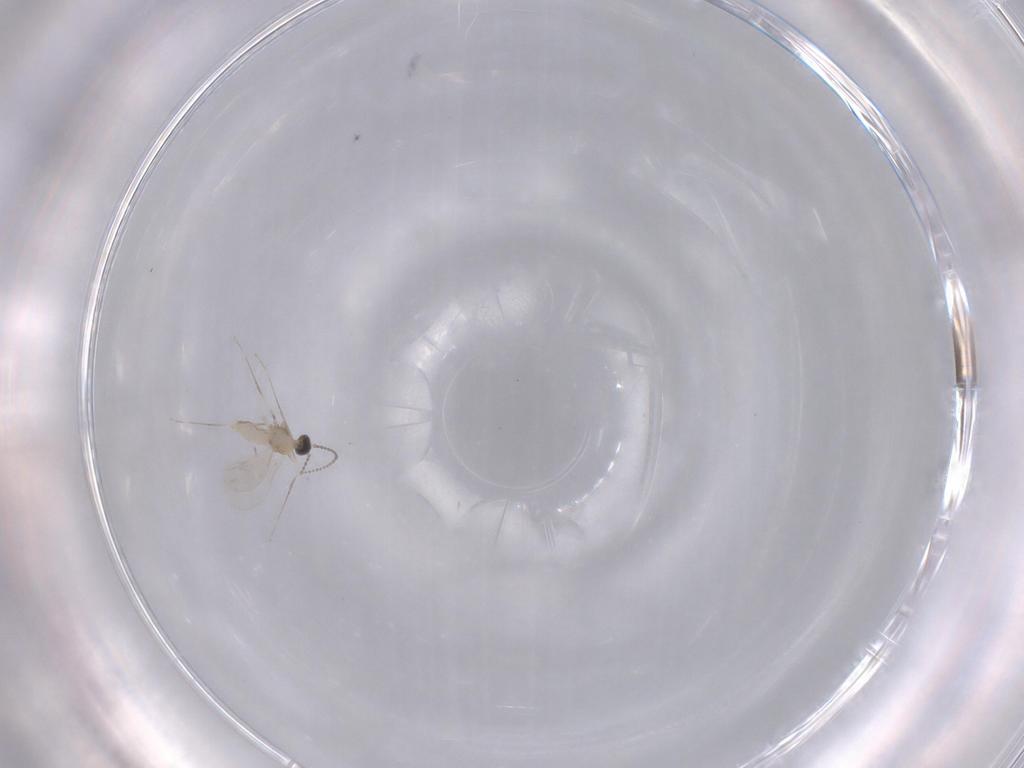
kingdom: Animalia
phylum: Arthropoda
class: Insecta
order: Diptera
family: Cecidomyiidae
